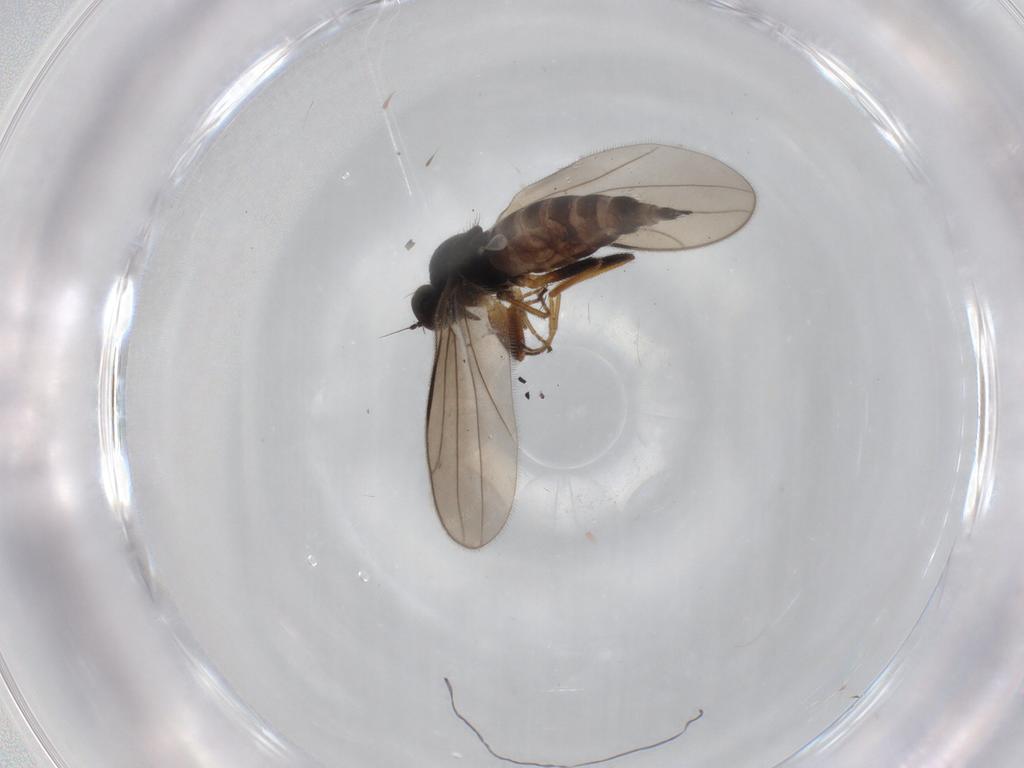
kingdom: Animalia
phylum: Arthropoda
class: Insecta
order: Diptera
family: Hybotidae
